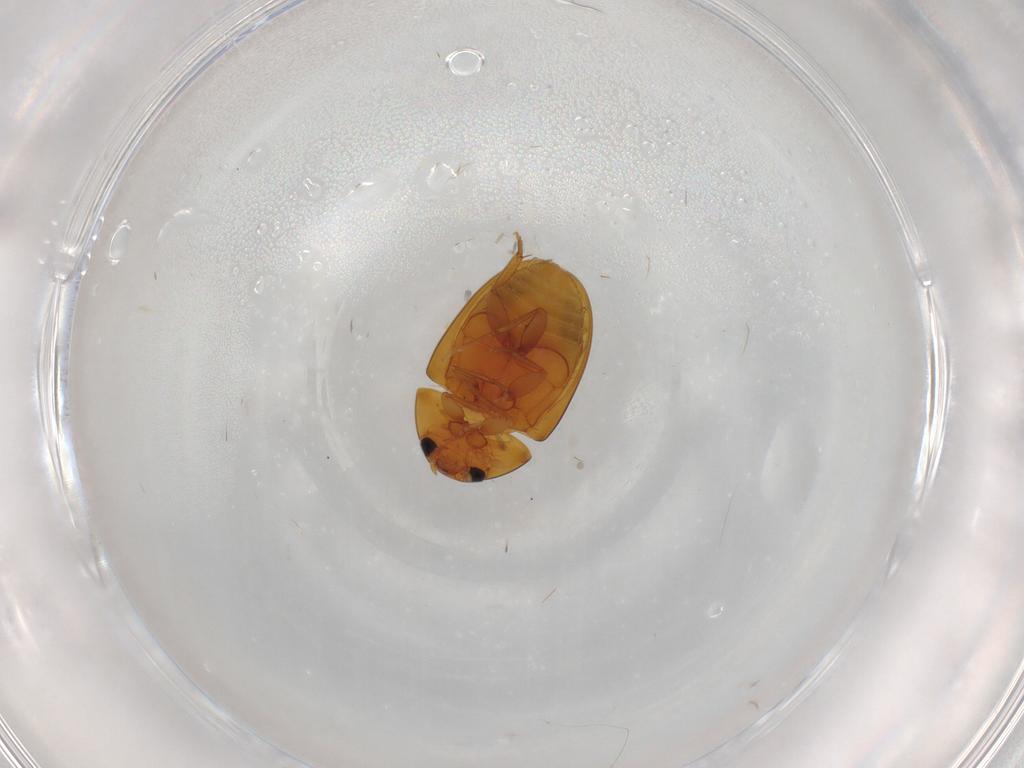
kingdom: Animalia
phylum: Arthropoda
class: Insecta
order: Coleoptera
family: Phalacridae
